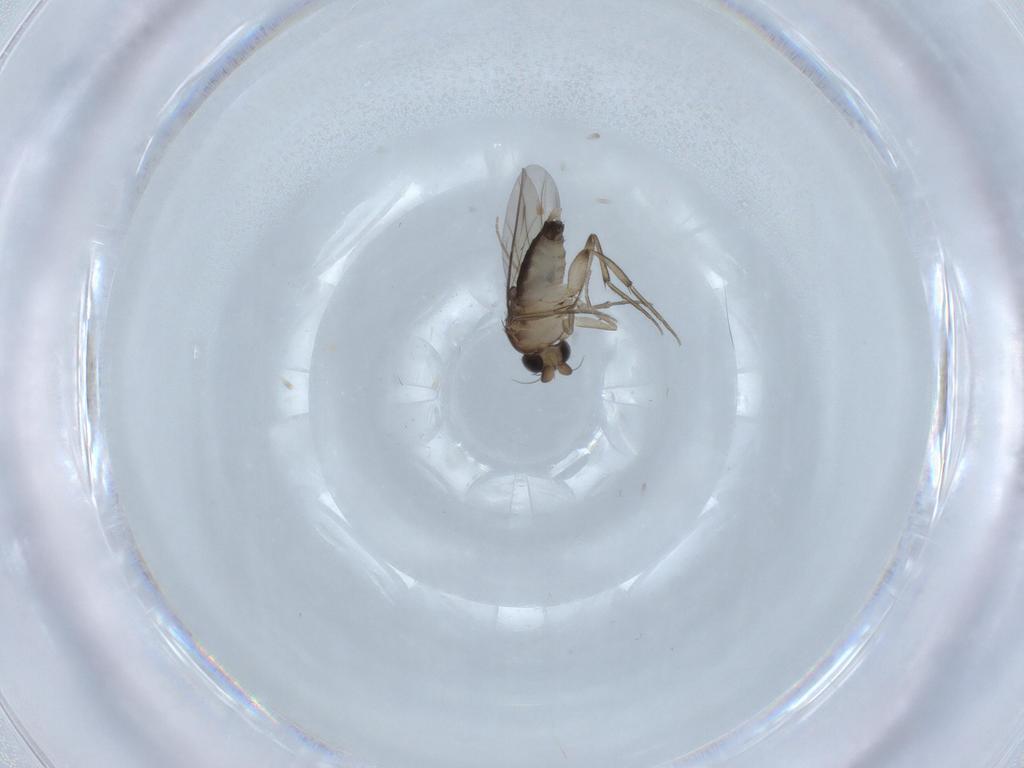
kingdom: Animalia
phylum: Arthropoda
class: Insecta
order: Diptera
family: Phoridae
